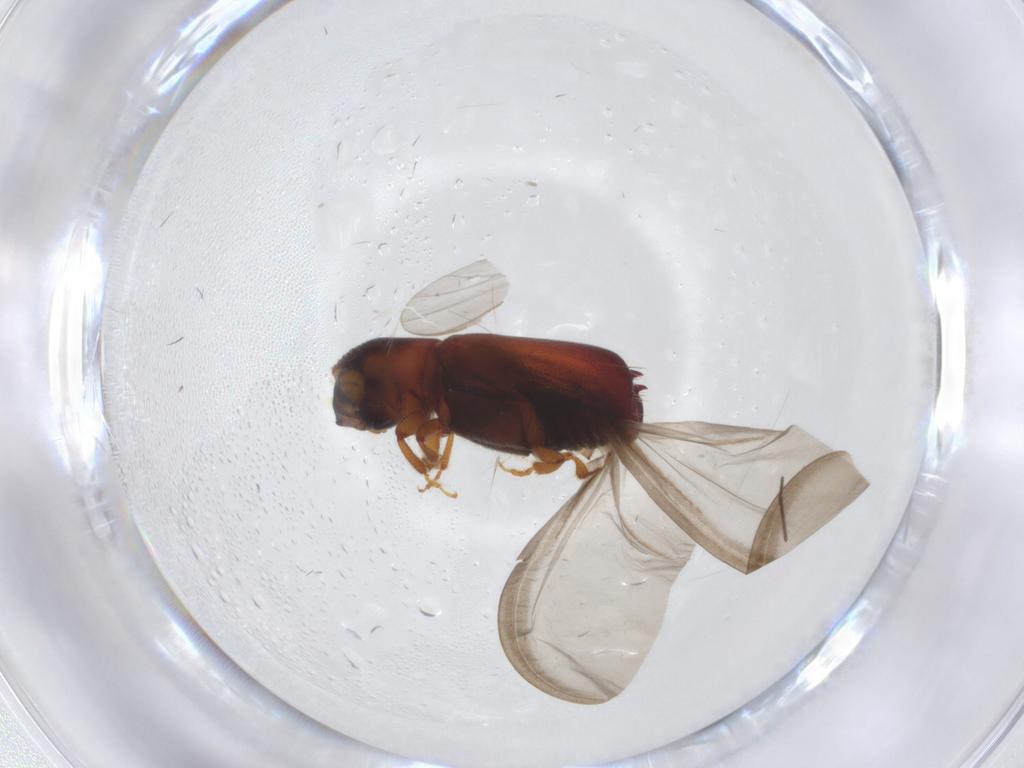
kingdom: Animalia
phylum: Arthropoda
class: Insecta
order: Coleoptera
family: Curculionidae
